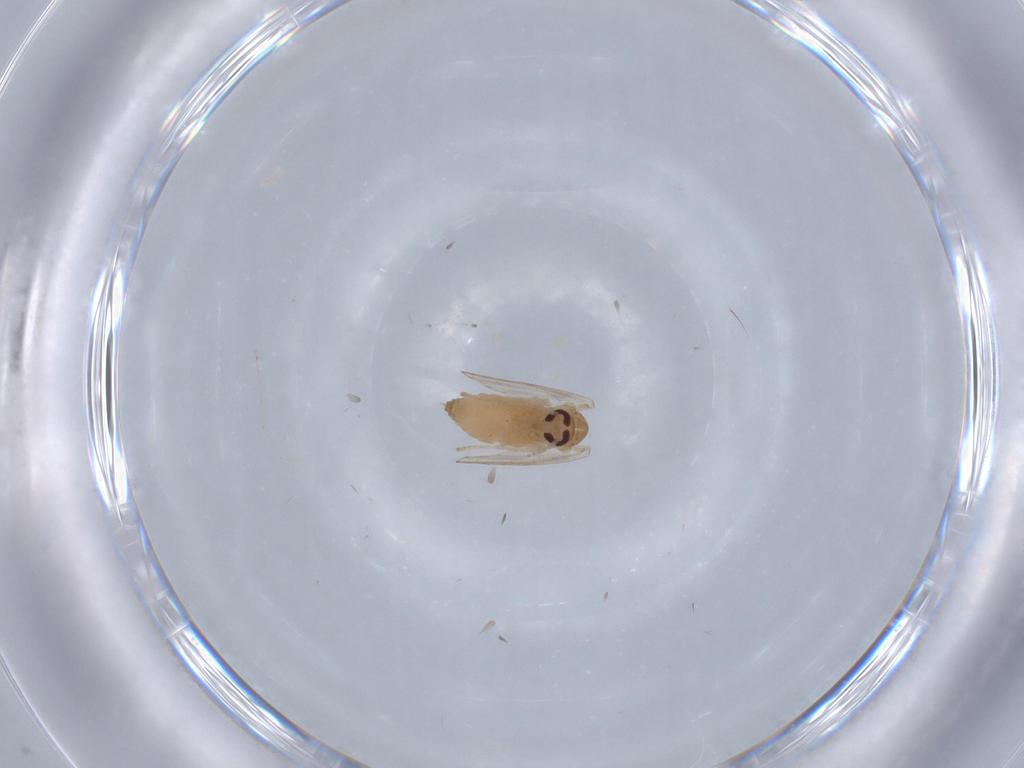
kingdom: Animalia
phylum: Arthropoda
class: Insecta
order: Diptera
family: Psychodidae
